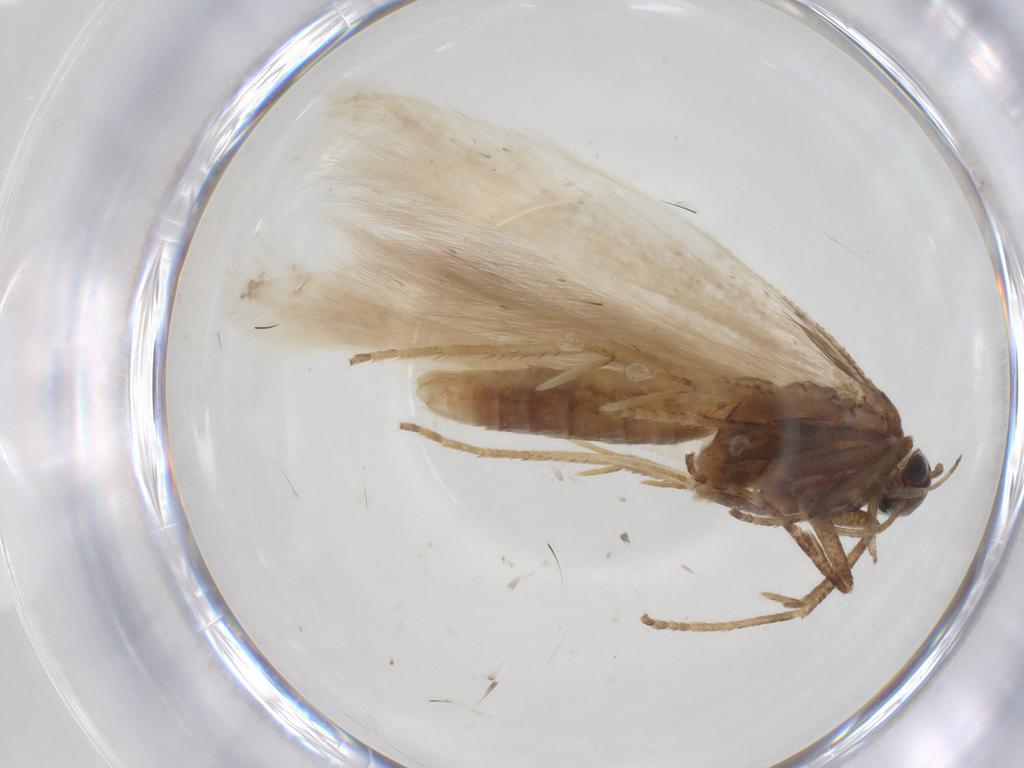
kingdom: Animalia
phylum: Arthropoda
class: Insecta
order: Lepidoptera
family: Gelechiidae
